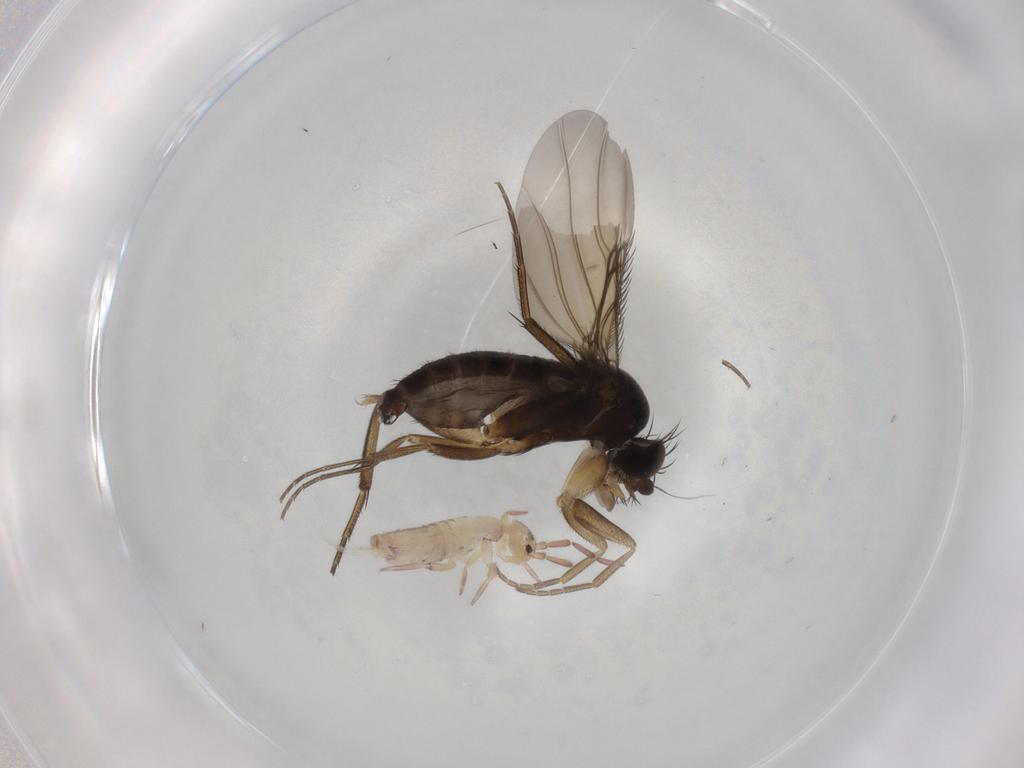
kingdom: Animalia
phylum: Arthropoda
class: Insecta
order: Diptera
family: Phoridae
